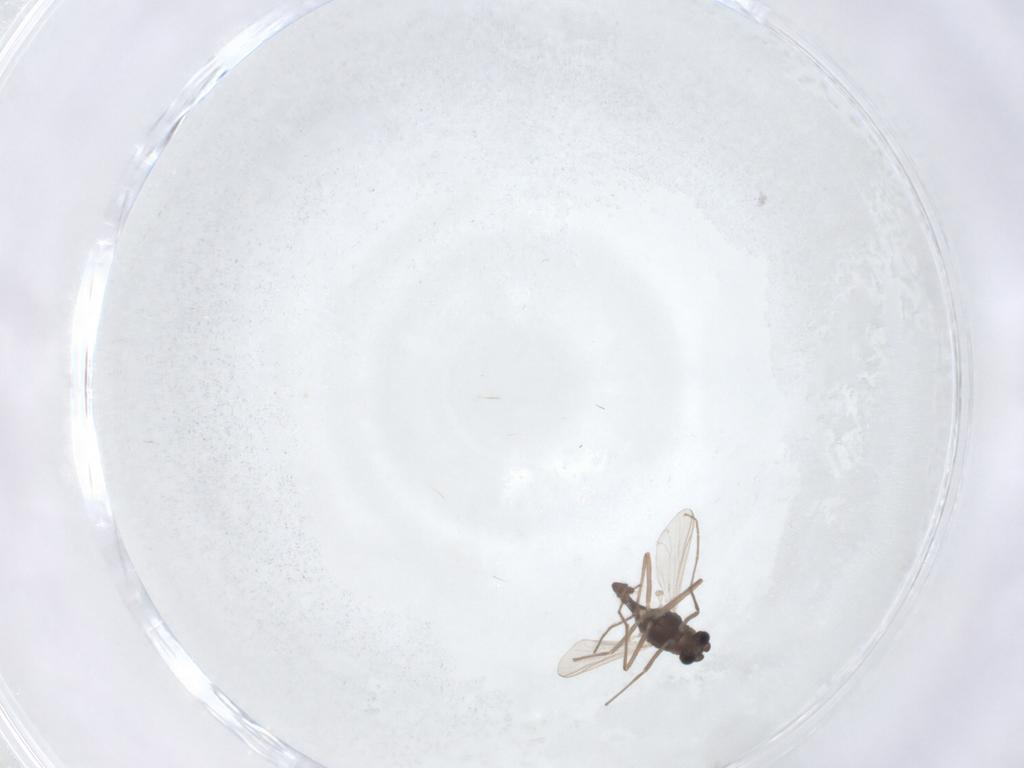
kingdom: Animalia
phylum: Arthropoda
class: Insecta
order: Diptera
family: Chironomidae
